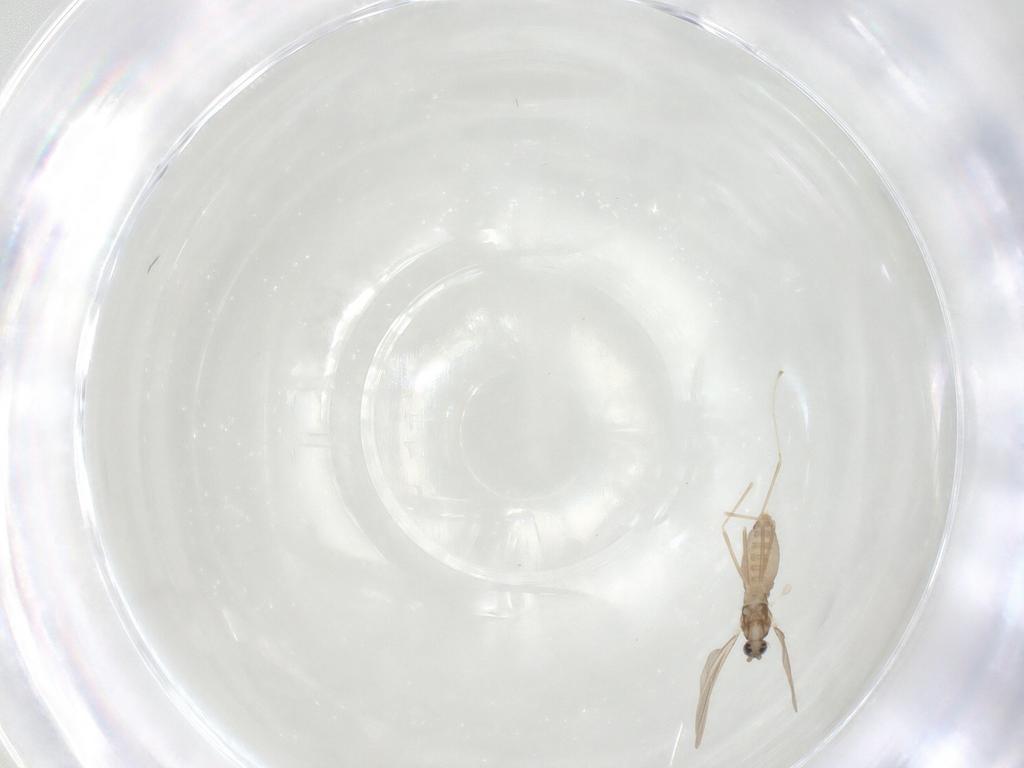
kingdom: Animalia
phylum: Arthropoda
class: Insecta
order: Diptera
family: Cecidomyiidae
